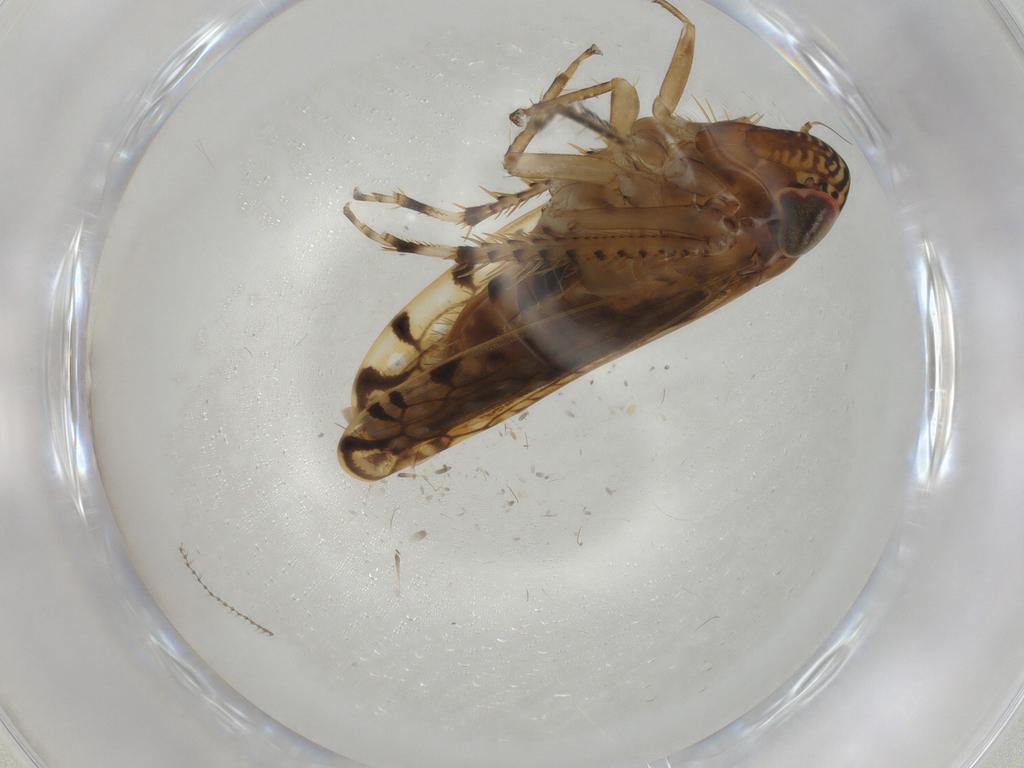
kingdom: Animalia
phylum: Arthropoda
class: Insecta
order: Hemiptera
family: Cicadellidae
